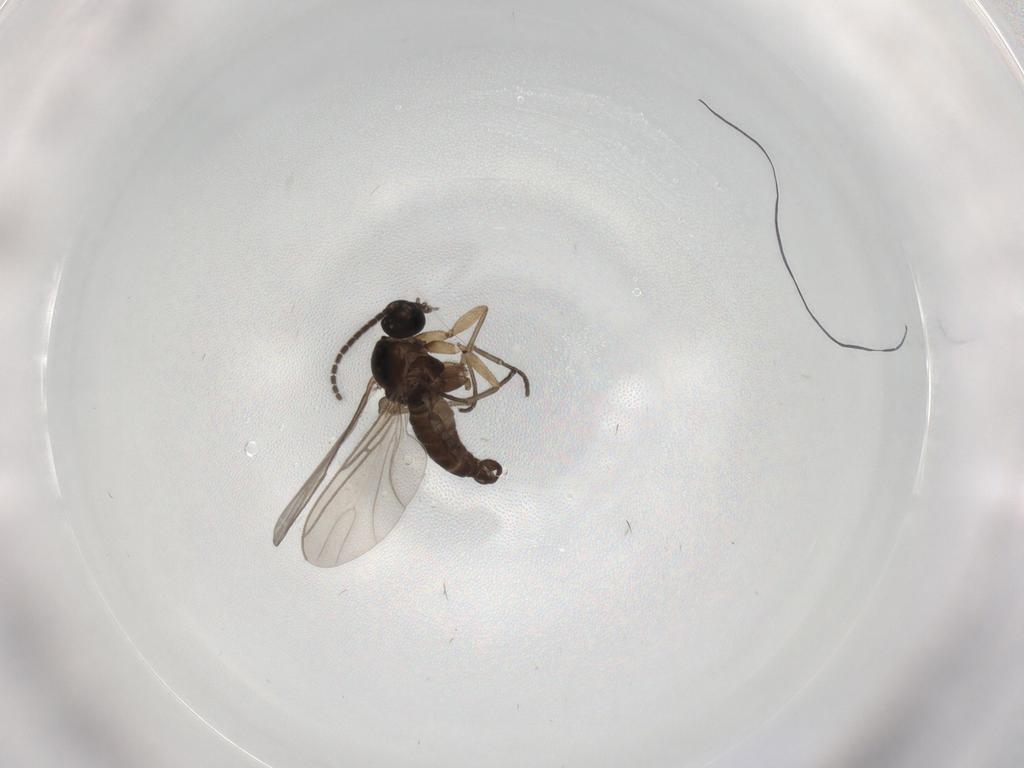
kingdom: Animalia
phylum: Arthropoda
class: Insecta
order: Diptera
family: Sciaridae
